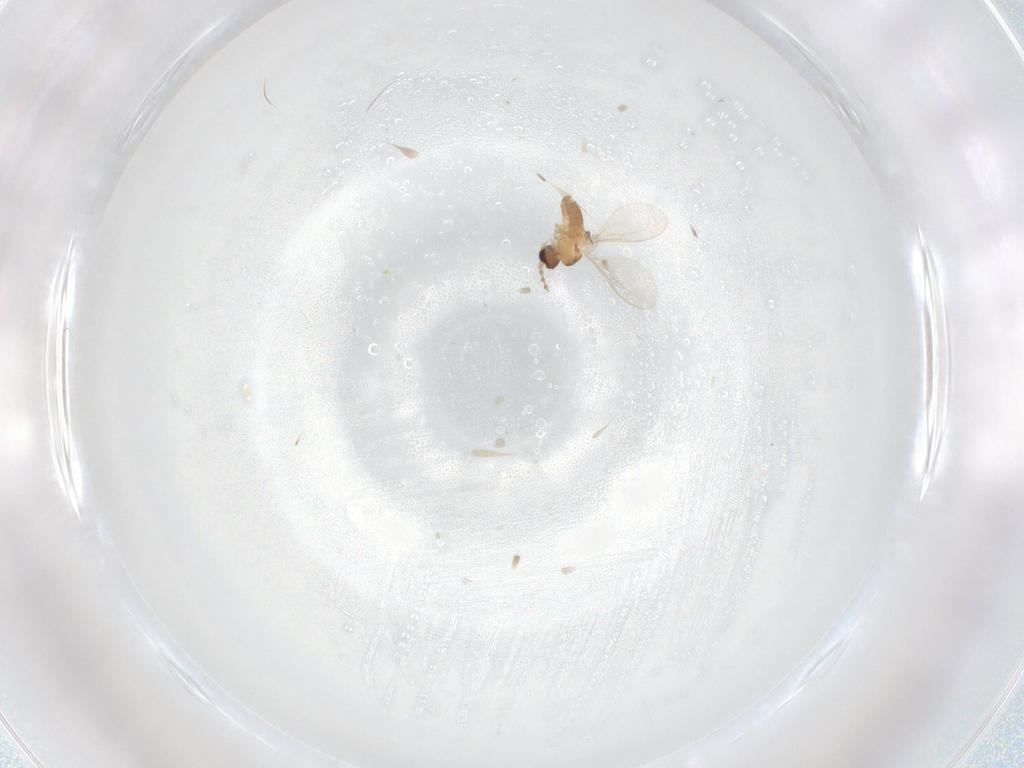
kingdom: Animalia
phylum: Arthropoda
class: Insecta
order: Diptera
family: Cecidomyiidae
